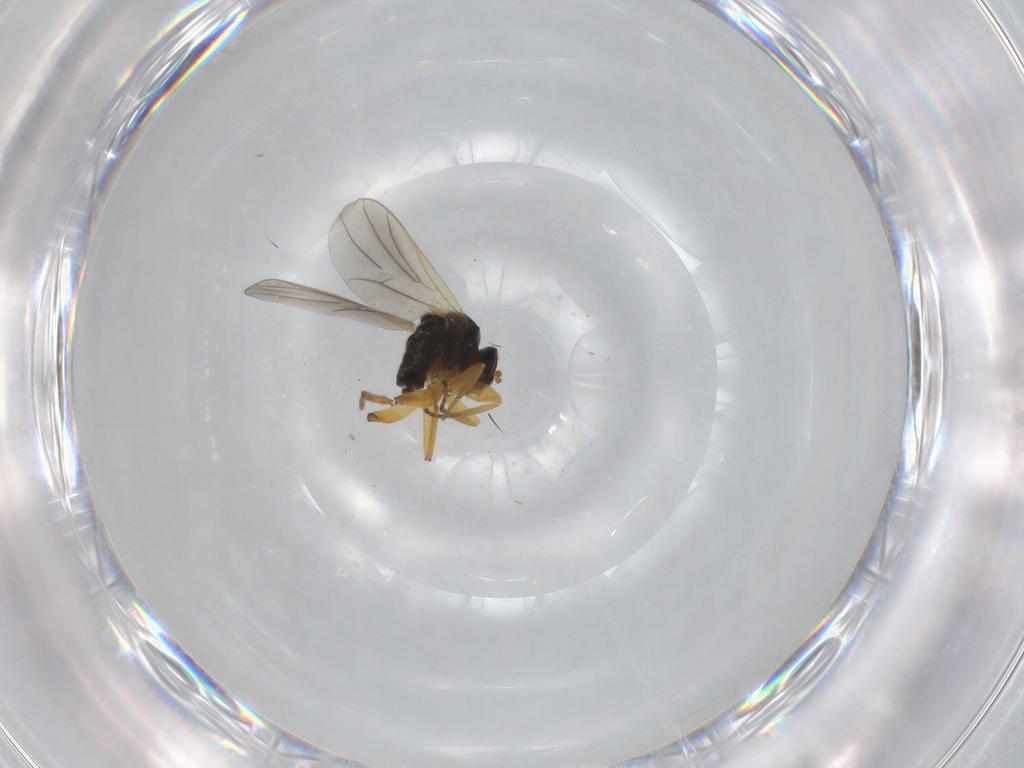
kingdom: Animalia
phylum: Arthropoda
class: Insecta
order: Diptera
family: Hybotidae
